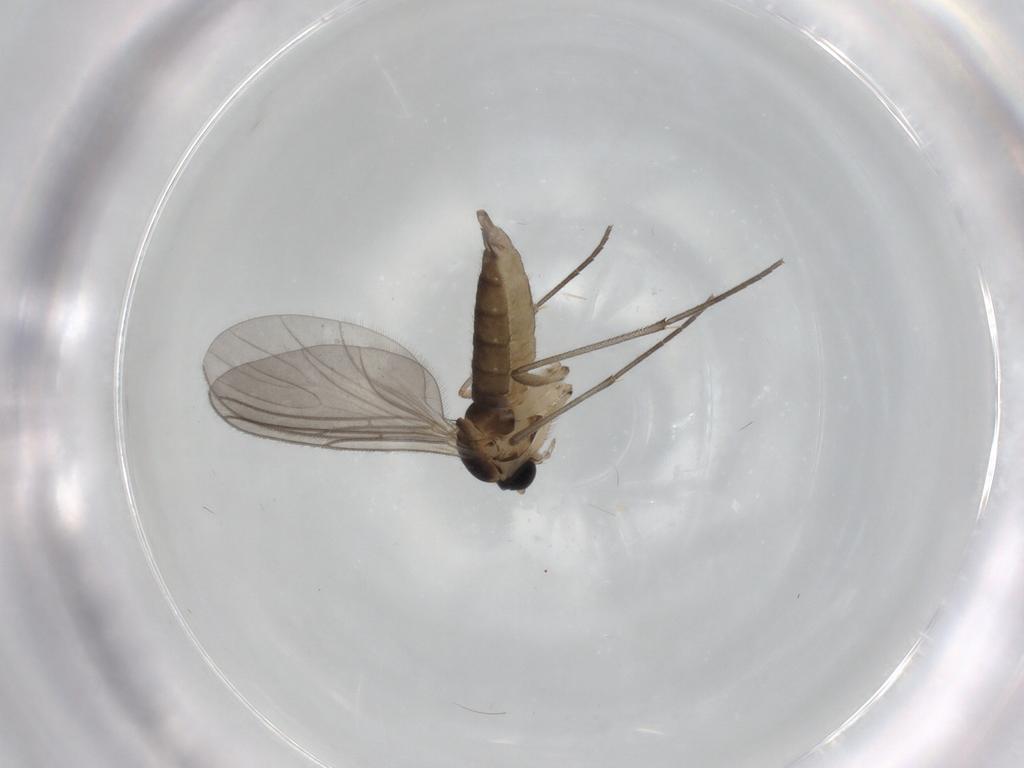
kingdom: Animalia
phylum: Arthropoda
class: Insecta
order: Diptera
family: Sciaridae
